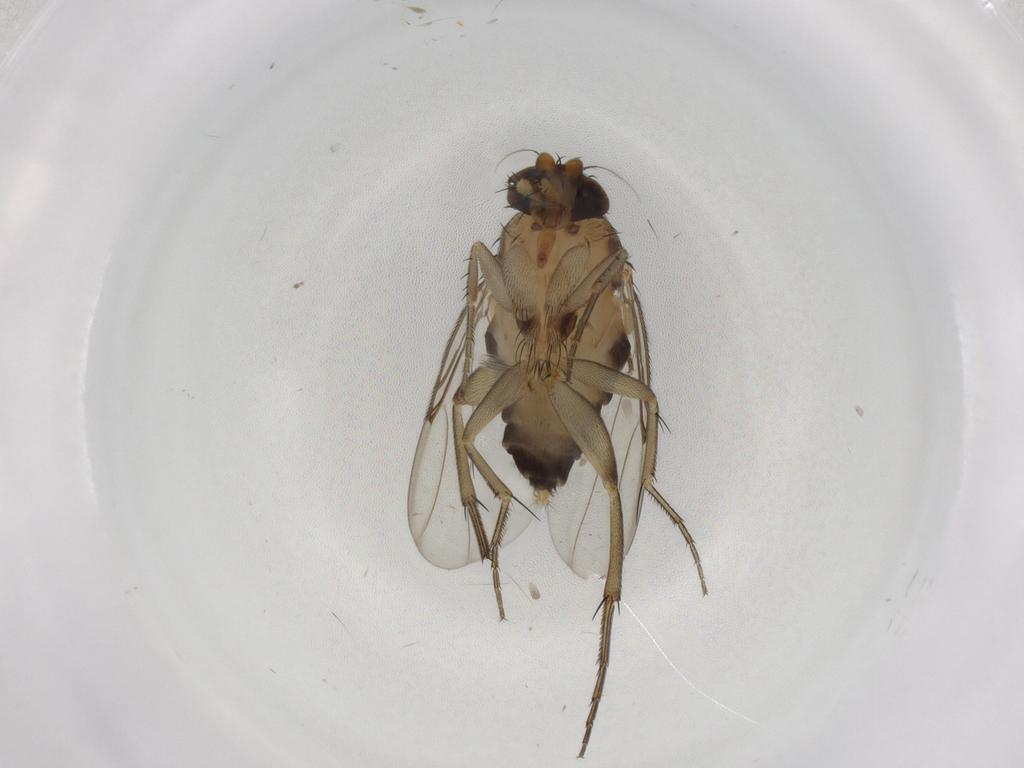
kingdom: Animalia
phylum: Arthropoda
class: Insecta
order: Diptera
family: Phoridae
